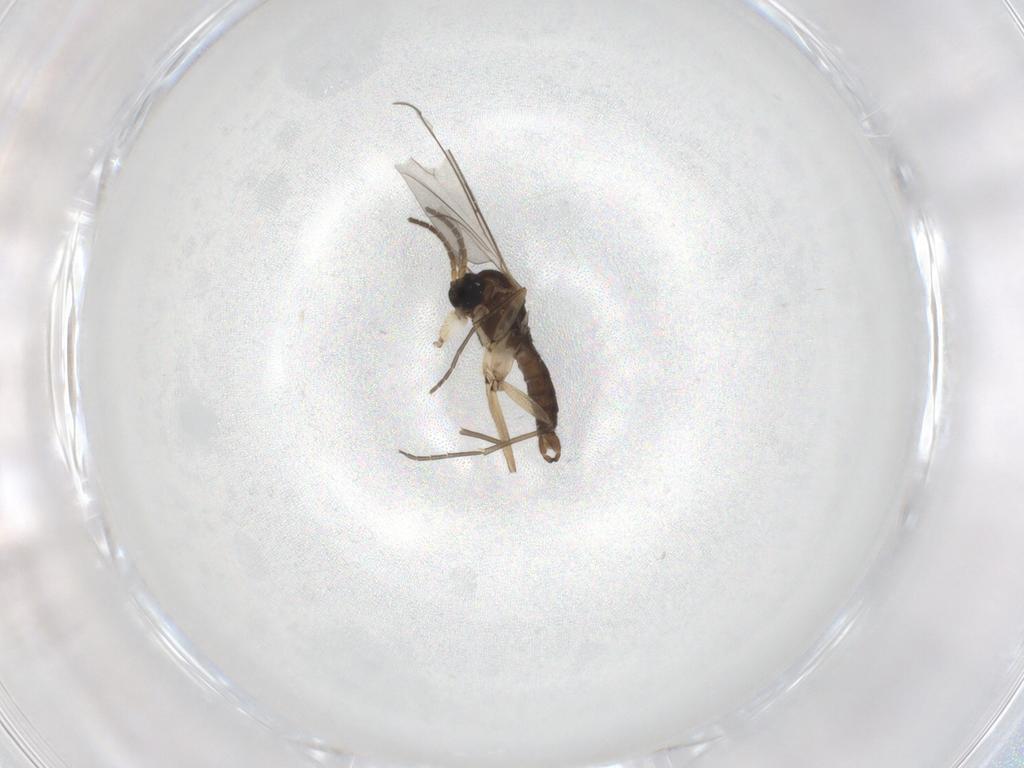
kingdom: Animalia
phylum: Arthropoda
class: Insecta
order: Diptera
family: Sciaridae
